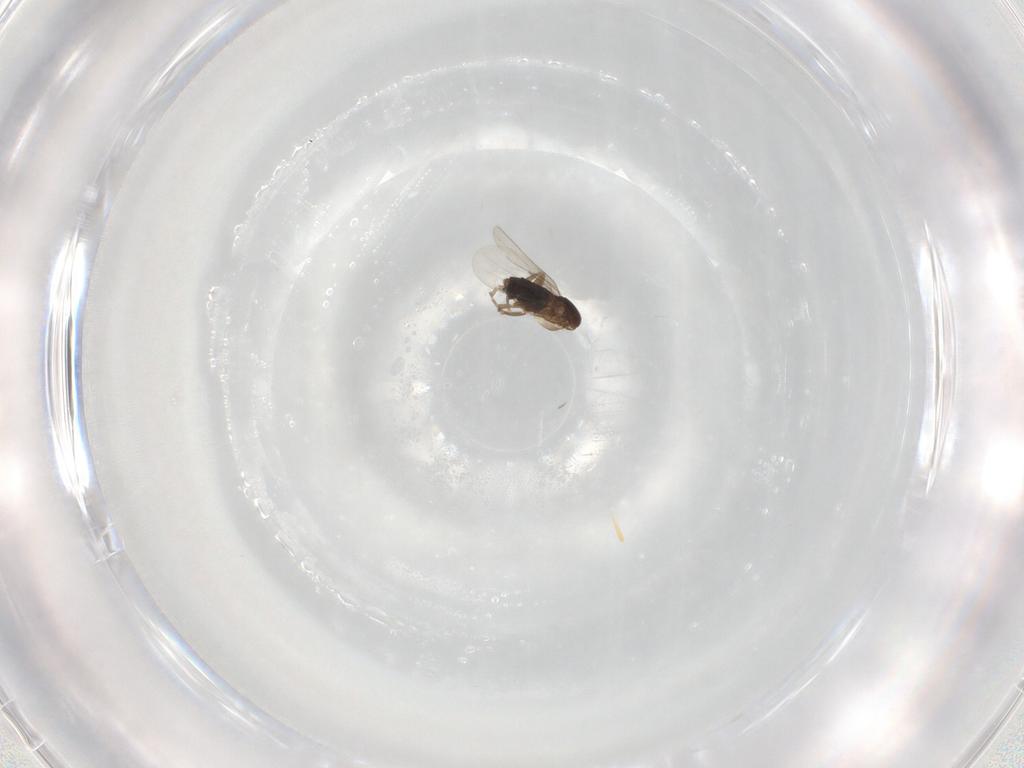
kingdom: Animalia
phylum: Arthropoda
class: Insecta
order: Diptera
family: Phoridae
